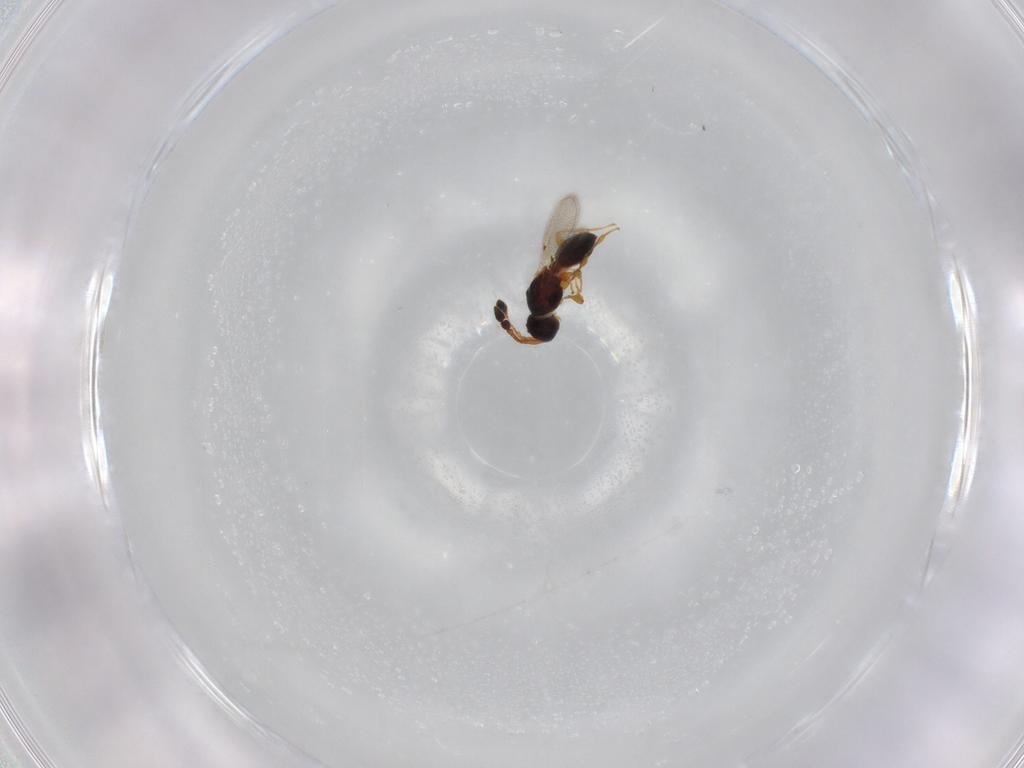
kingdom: Animalia
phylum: Arthropoda
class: Insecta
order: Hymenoptera
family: Diapriidae
